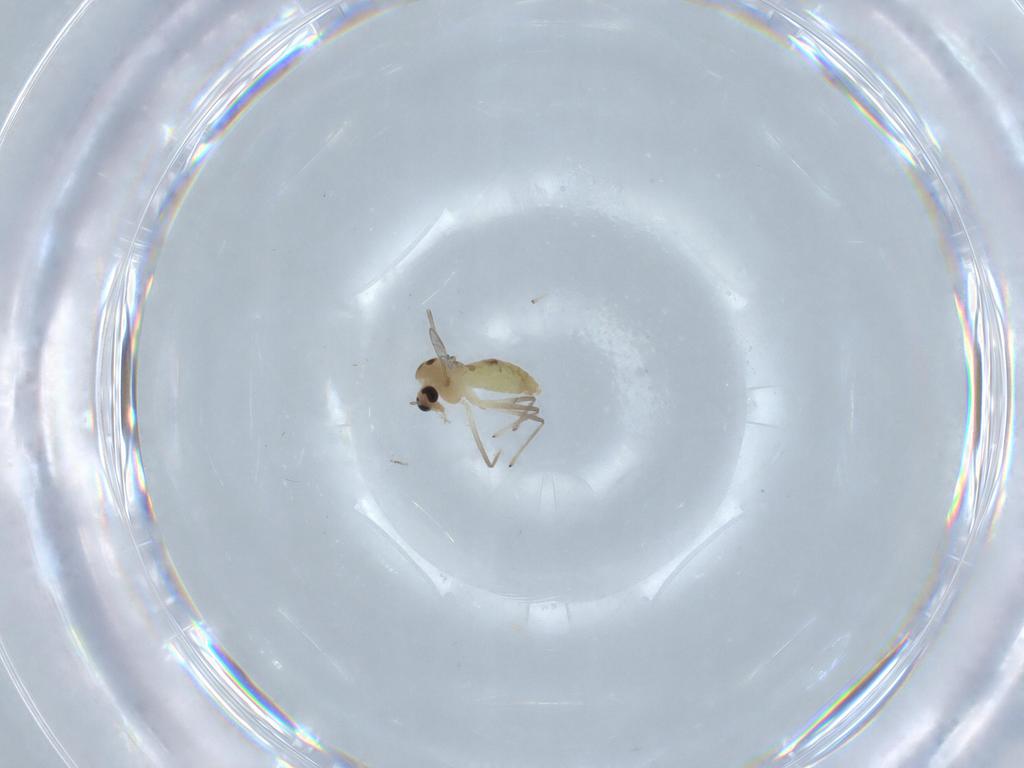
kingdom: Animalia
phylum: Arthropoda
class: Insecta
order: Diptera
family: Chironomidae
